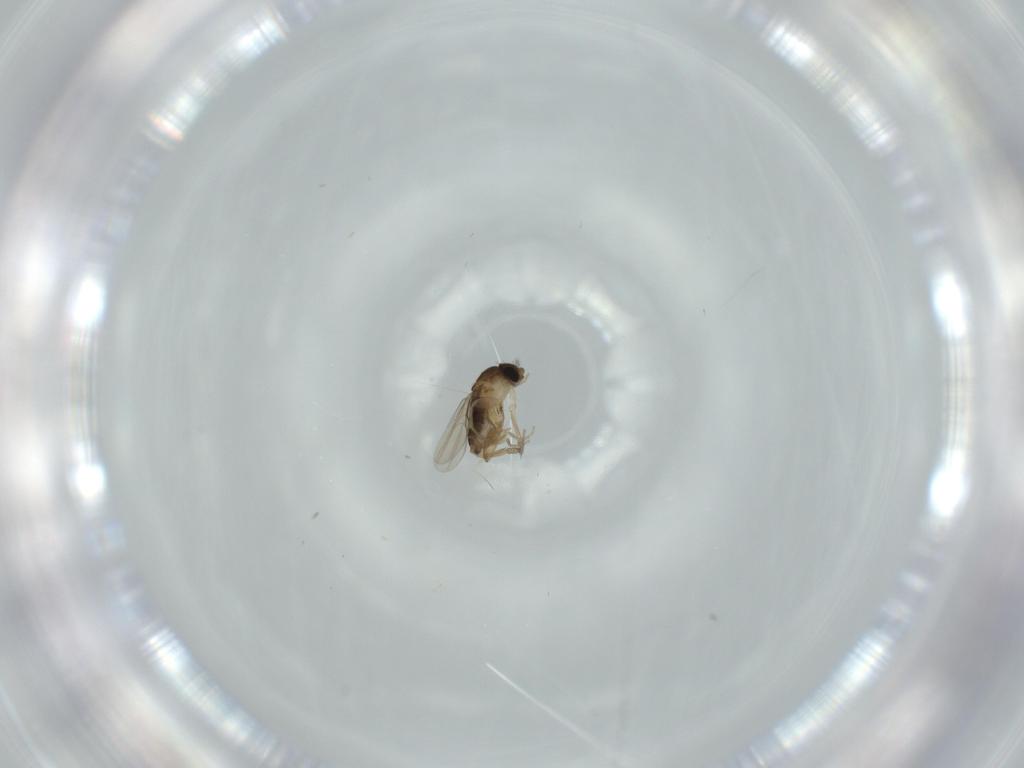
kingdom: Animalia
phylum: Arthropoda
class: Insecta
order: Diptera
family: Phoridae
